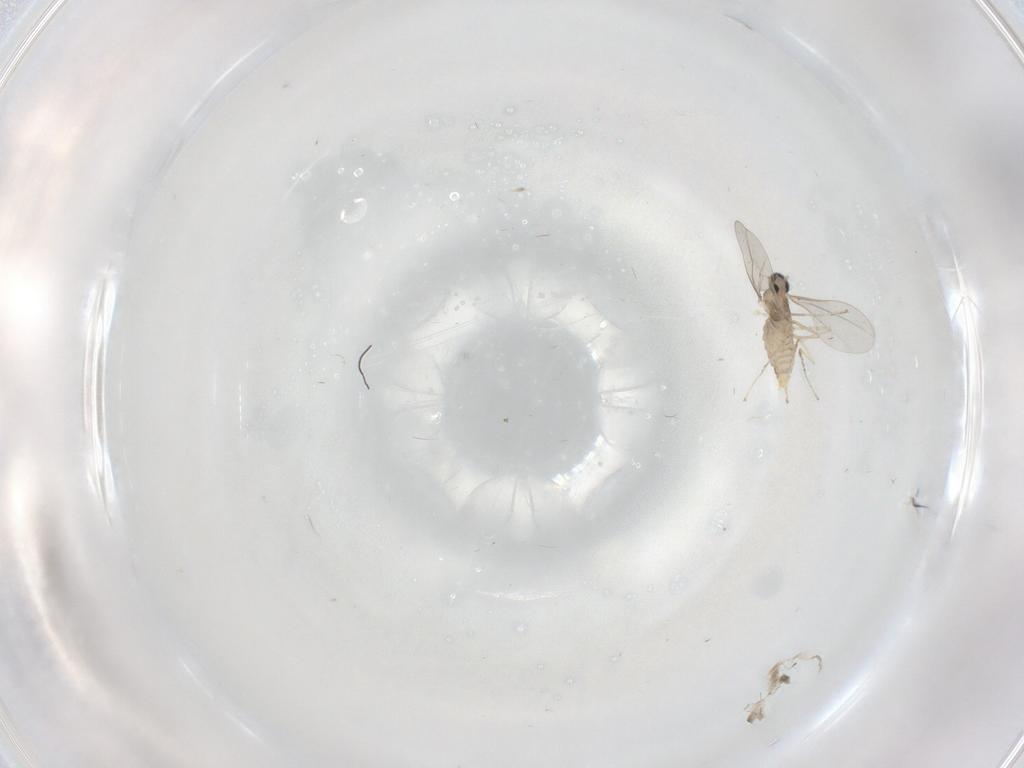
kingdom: Animalia
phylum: Arthropoda
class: Insecta
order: Diptera
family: Cecidomyiidae
